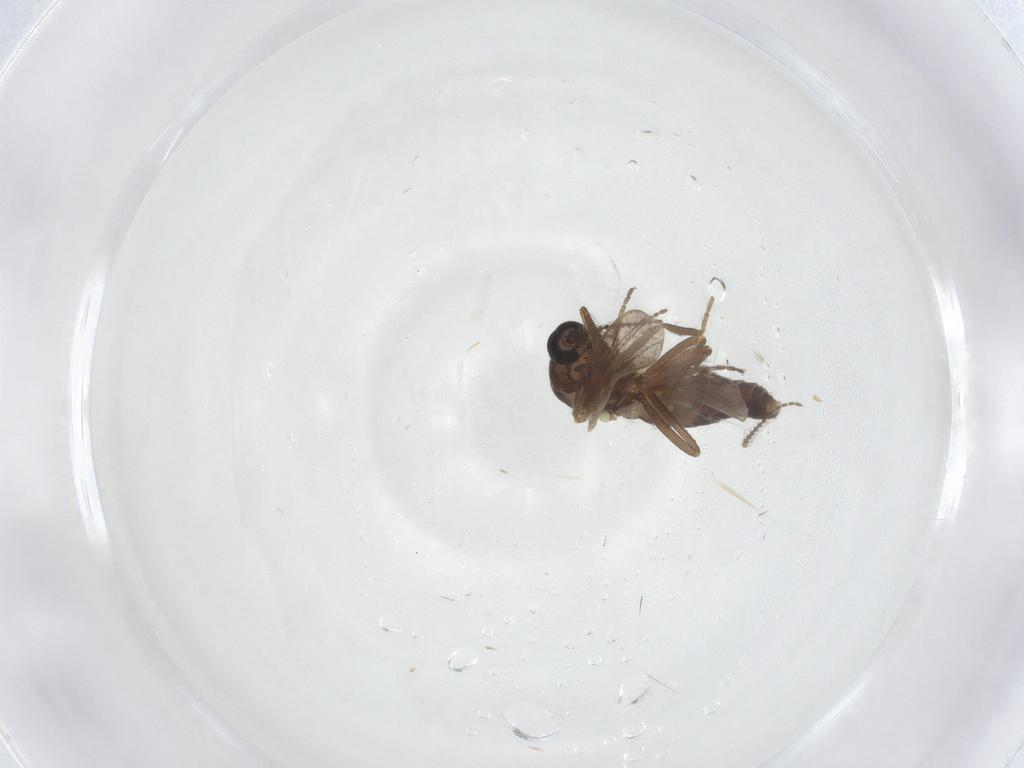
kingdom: Animalia
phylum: Arthropoda
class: Insecta
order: Diptera
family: Ceratopogonidae
